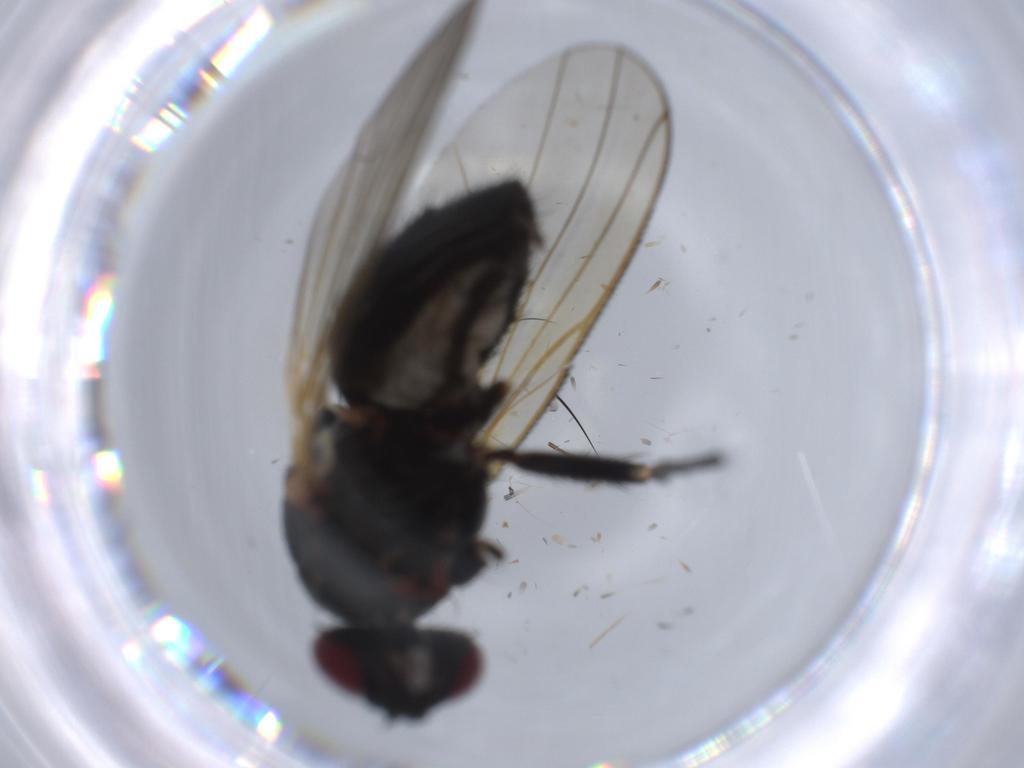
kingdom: Animalia
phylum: Arthropoda
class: Insecta
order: Diptera
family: Fannia
